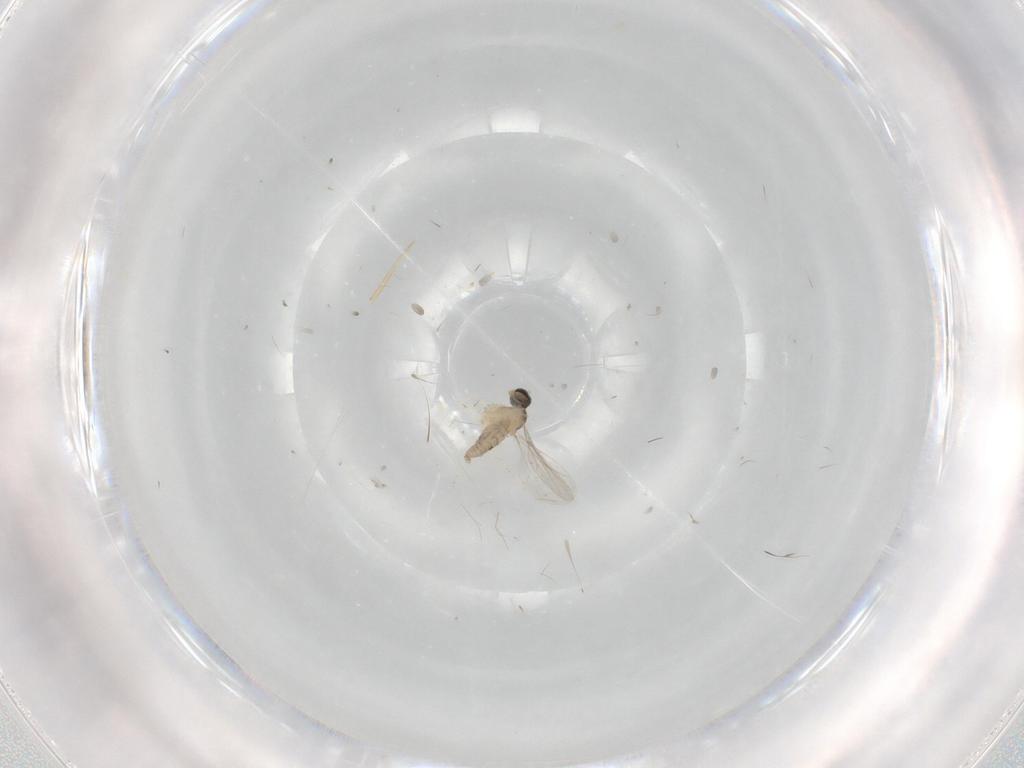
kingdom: Animalia
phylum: Arthropoda
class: Insecta
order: Diptera
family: Cecidomyiidae
